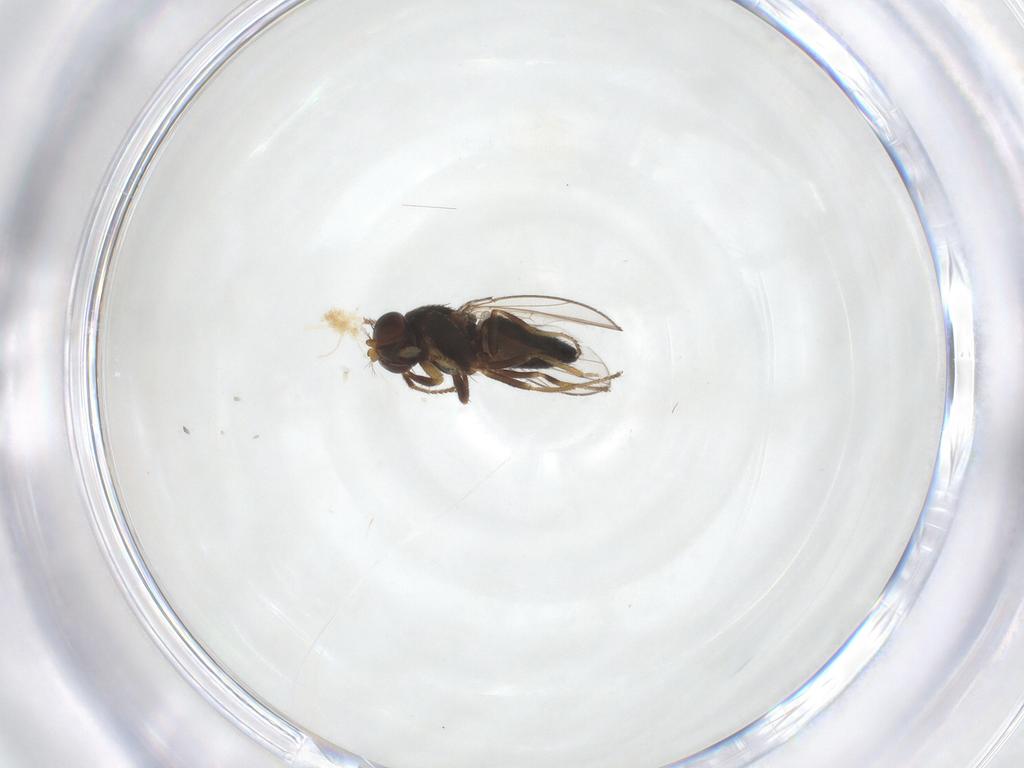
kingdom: Animalia
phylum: Arthropoda
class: Insecta
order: Diptera
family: Ephydridae
